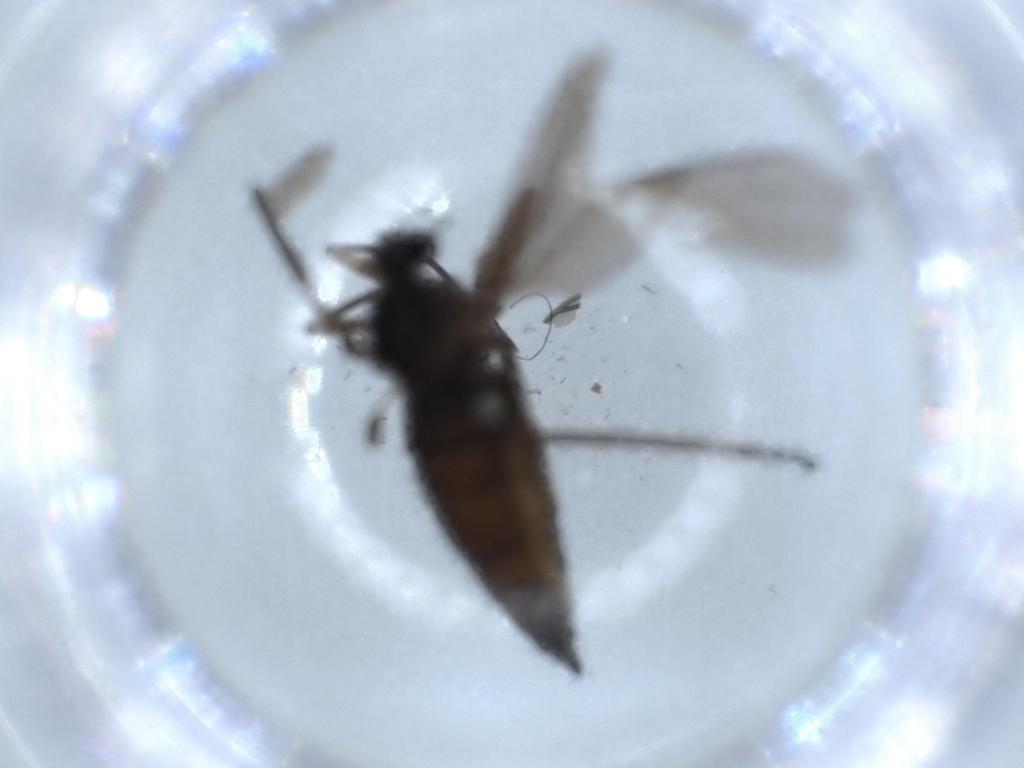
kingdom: Animalia
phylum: Arthropoda
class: Insecta
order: Diptera
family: Sciaridae
